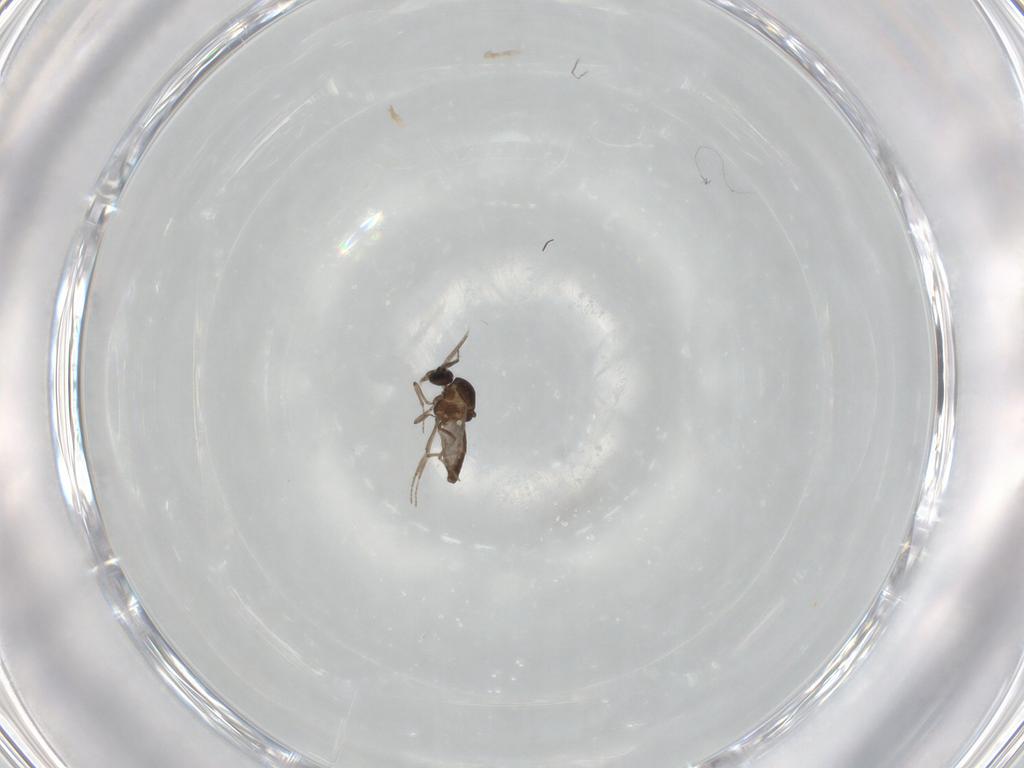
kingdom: Animalia
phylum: Arthropoda
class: Insecta
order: Diptera
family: Ceratopogonidae
